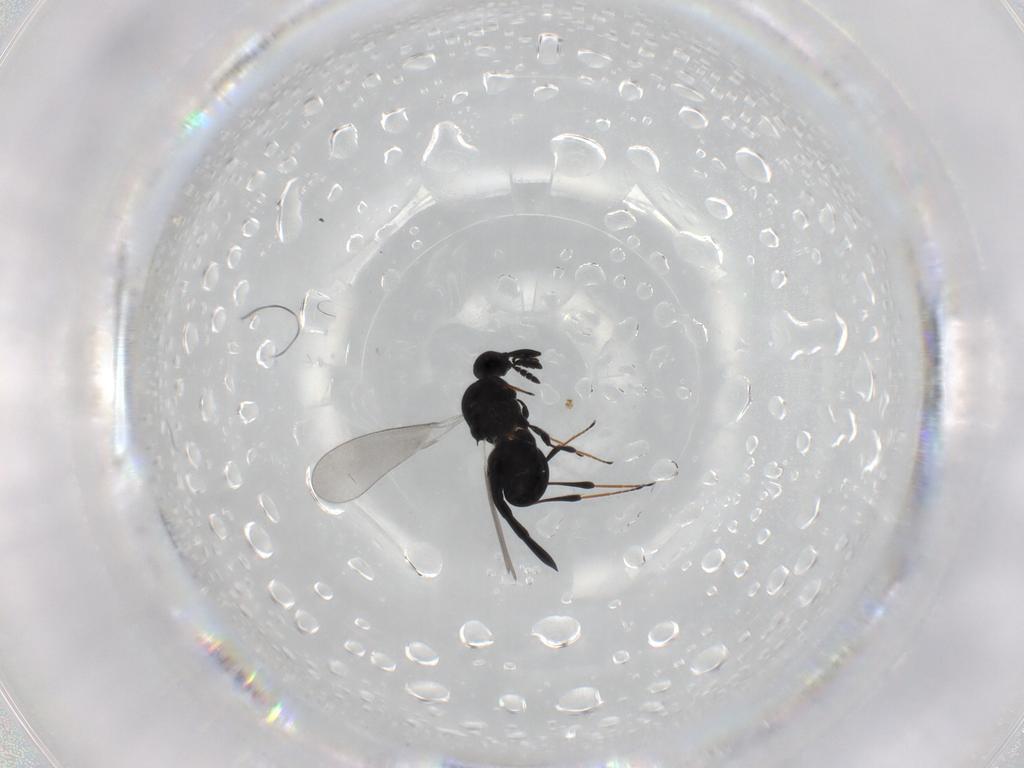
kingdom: Animalia
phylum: Arthropoda
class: Insecta
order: Hymenoptera
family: Platygastridae
